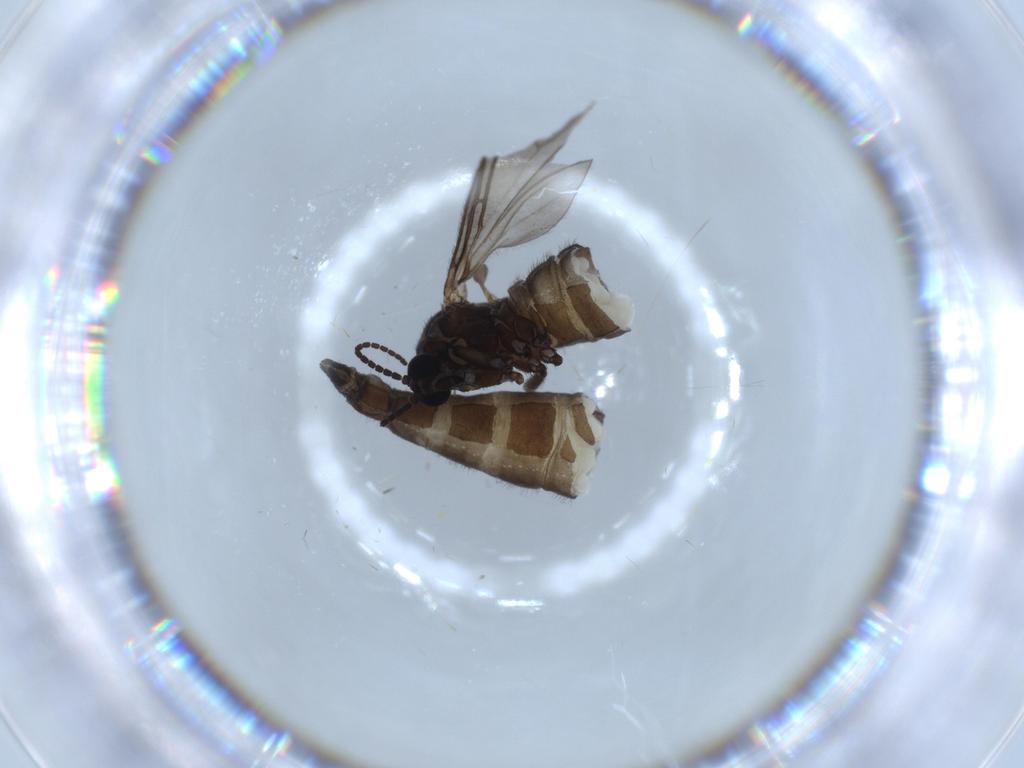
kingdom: Animalia
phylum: Arthropoda
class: Insecta
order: Diptera
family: Sciaridae
